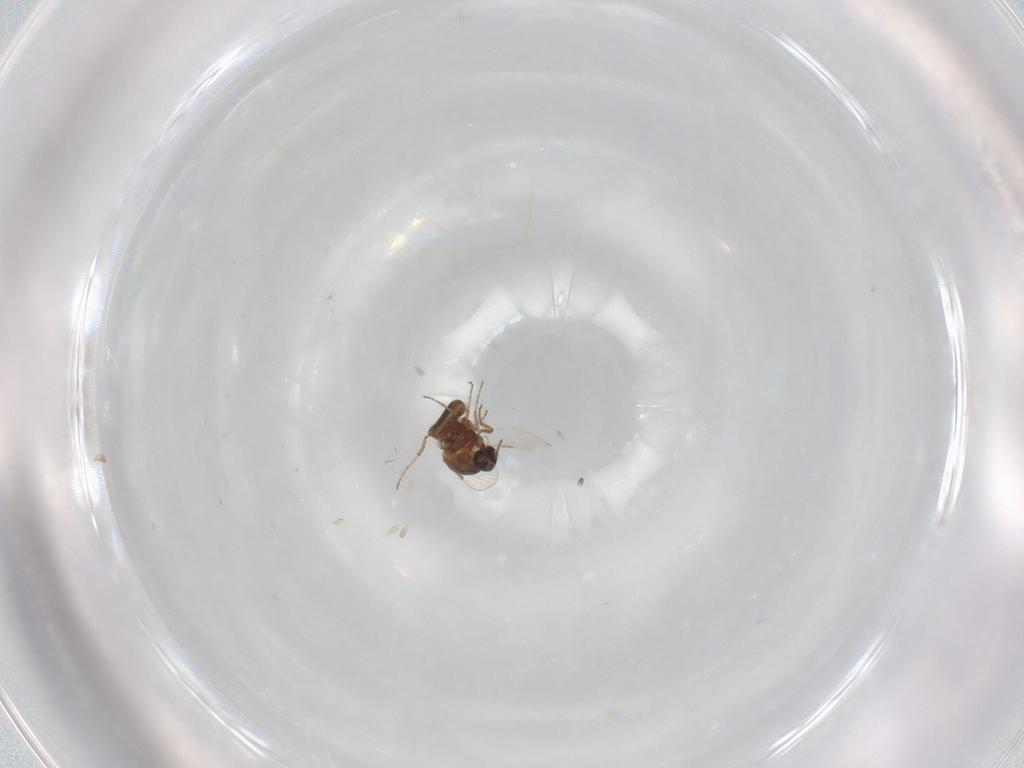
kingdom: Animalia
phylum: Arthropoda
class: Insecta
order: Diptera
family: Ceratopogonidae
